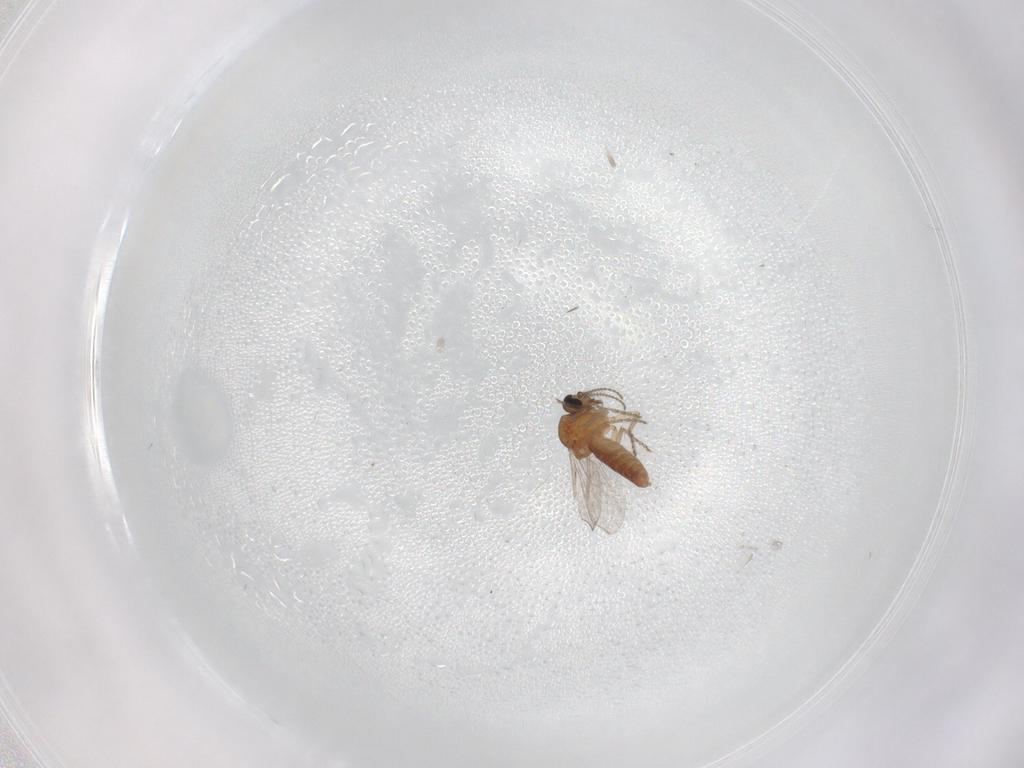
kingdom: Animalia
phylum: Arthropoda
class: Insecta
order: Diptera
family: Ceratopogonidae
